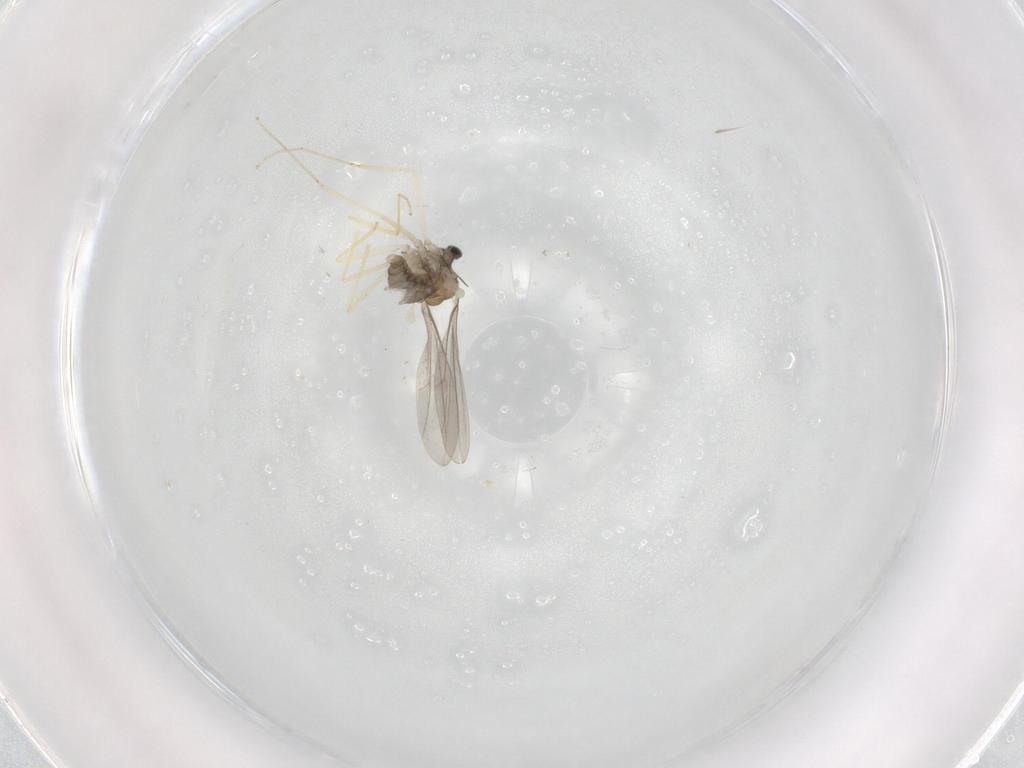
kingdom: Animalia
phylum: Arthropoda
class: Insecta
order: Diptera
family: Cecidomyiidae
